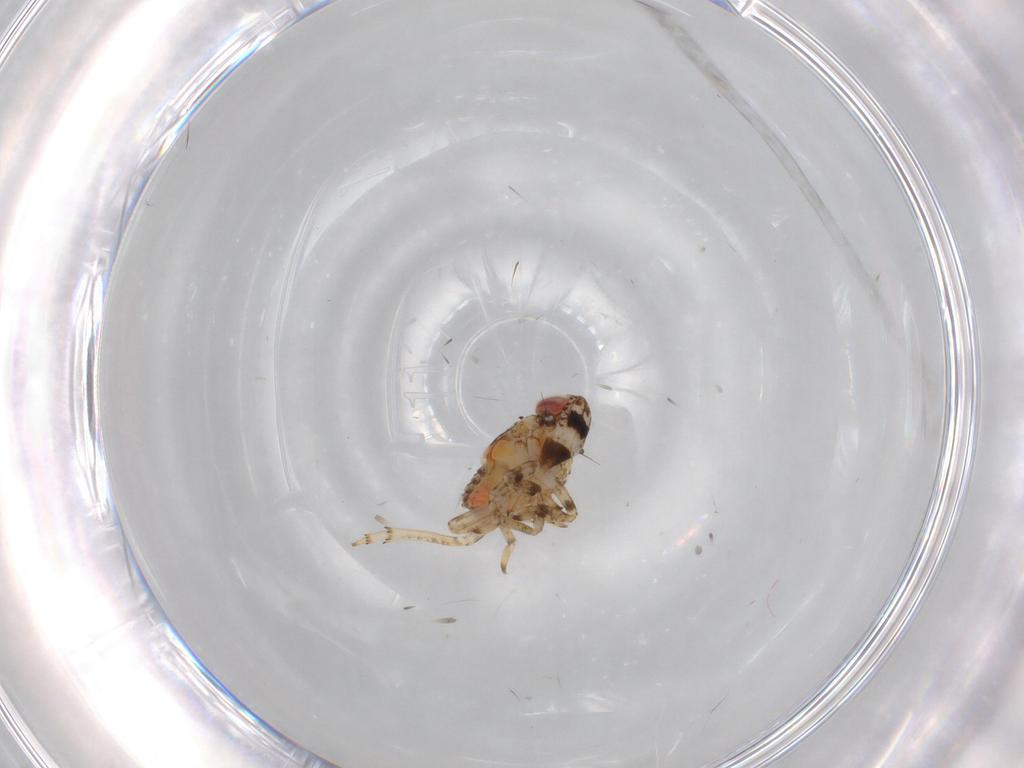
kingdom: Animalia
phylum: Arthropoda
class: Insecta
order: Hemiptera
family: Issidae
